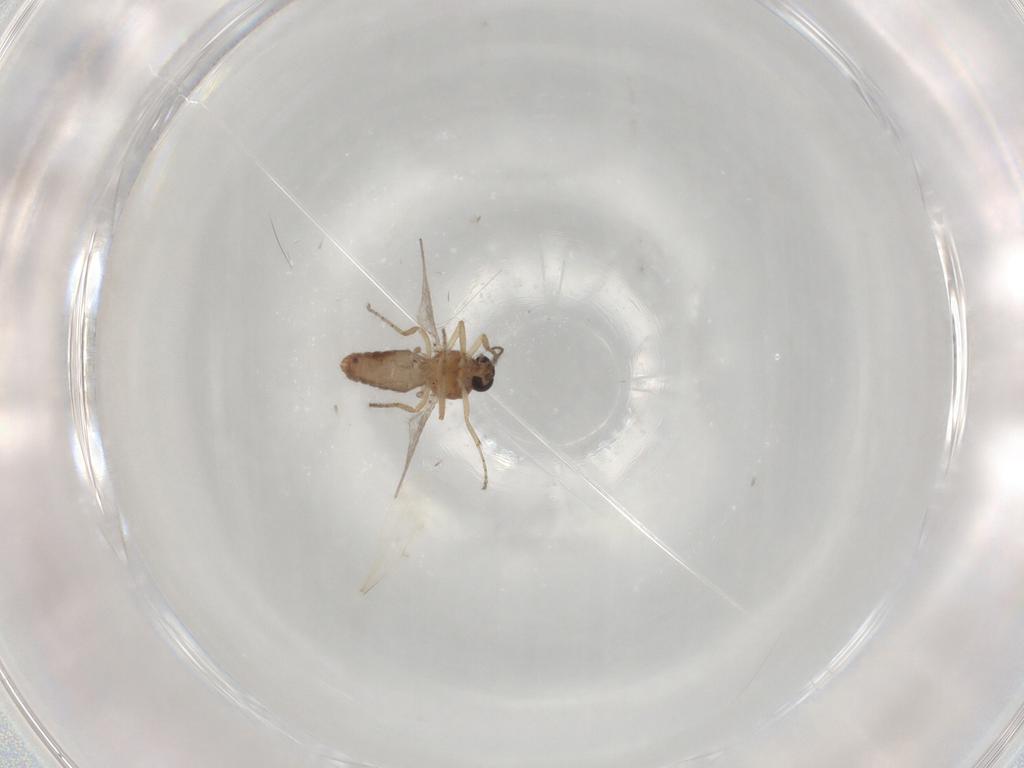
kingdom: Animalia
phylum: Arthropoda
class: Insecta
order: Diptera
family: Ceratopogonidae
